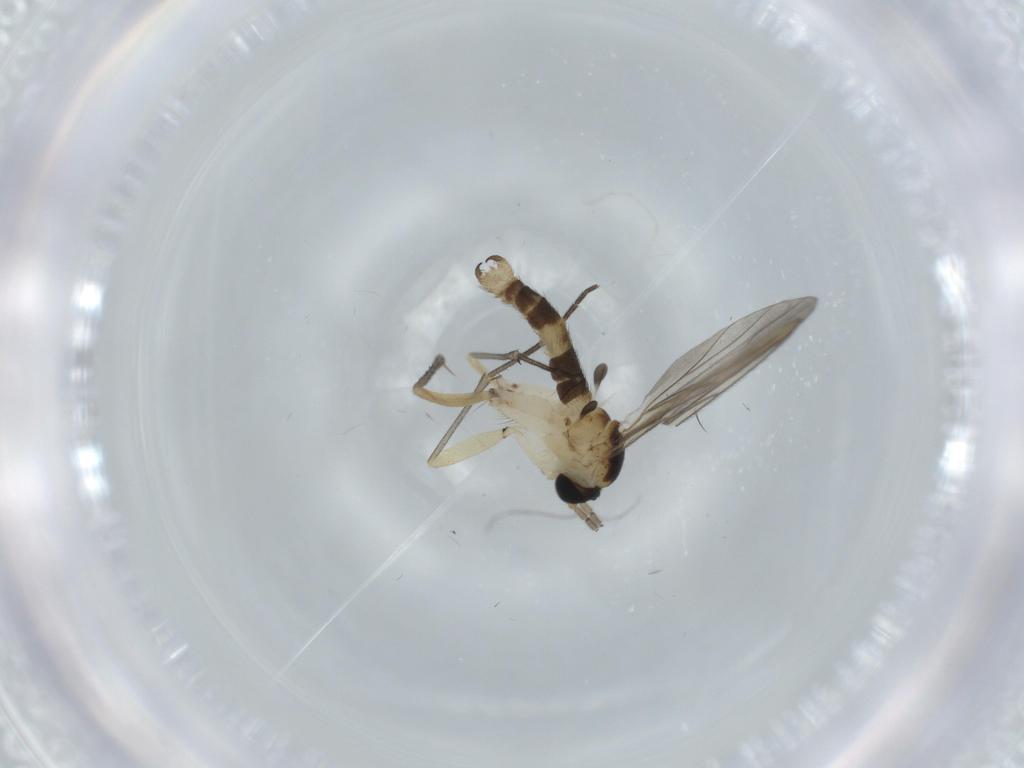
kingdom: Animalia
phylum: Arthropoda
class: Insecta
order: Diptera
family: Sciaridae
